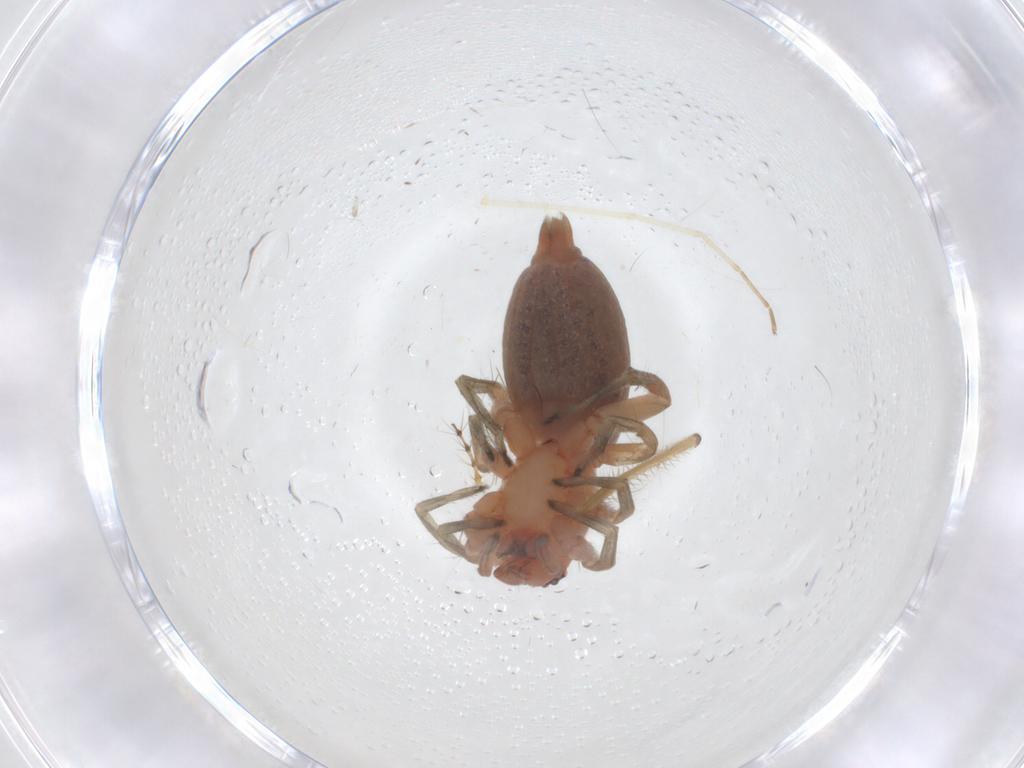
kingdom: Animalia
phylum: Arthropoda
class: Arachnida
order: Araneae
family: Clubionidae
